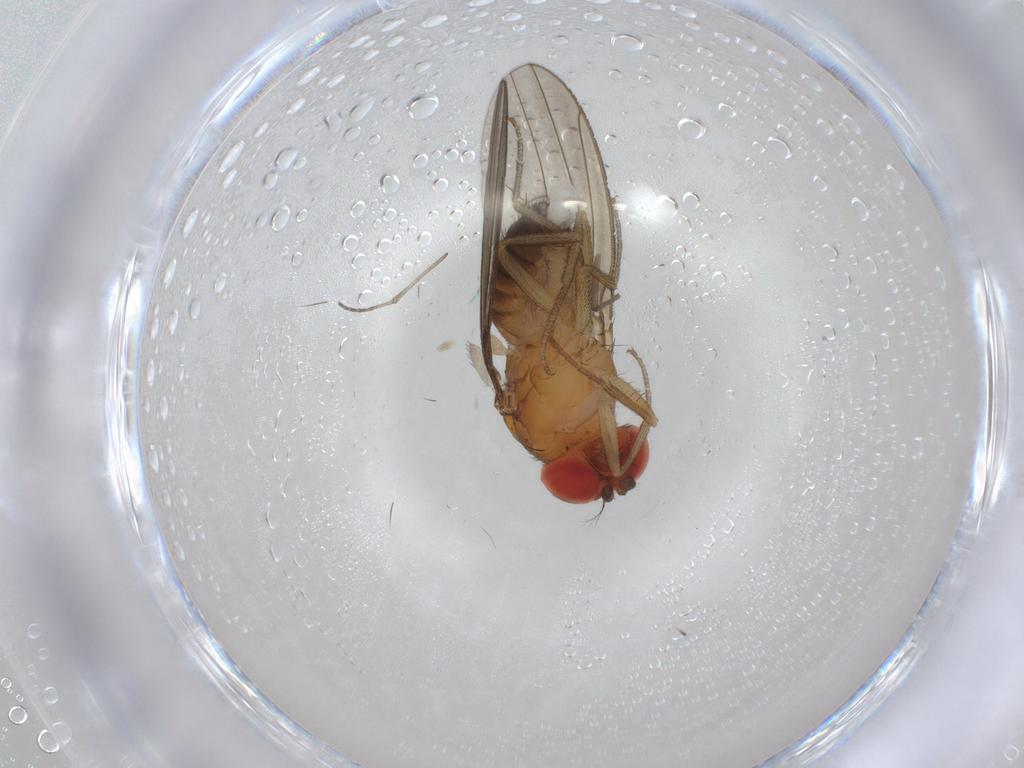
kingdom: Animalia
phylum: Arthropoda
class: Insecta
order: Diptera
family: Drosophilidae
